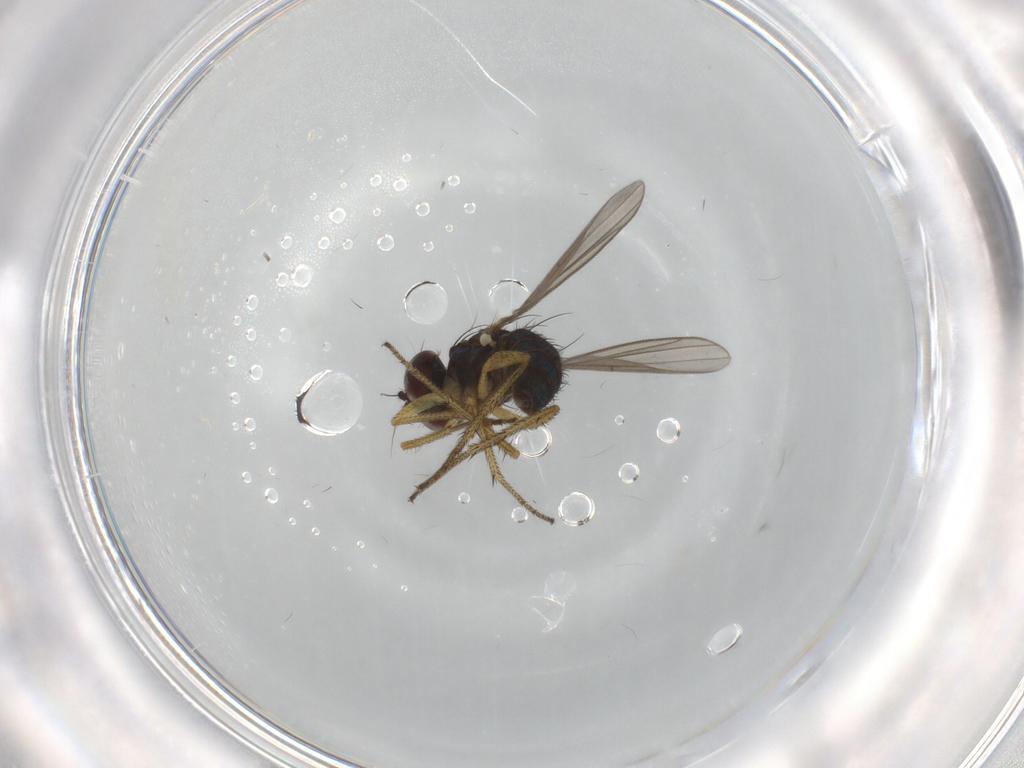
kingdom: Animalia
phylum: Arthropoda
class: Insecta
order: Diptera
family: Dolichopodidae
